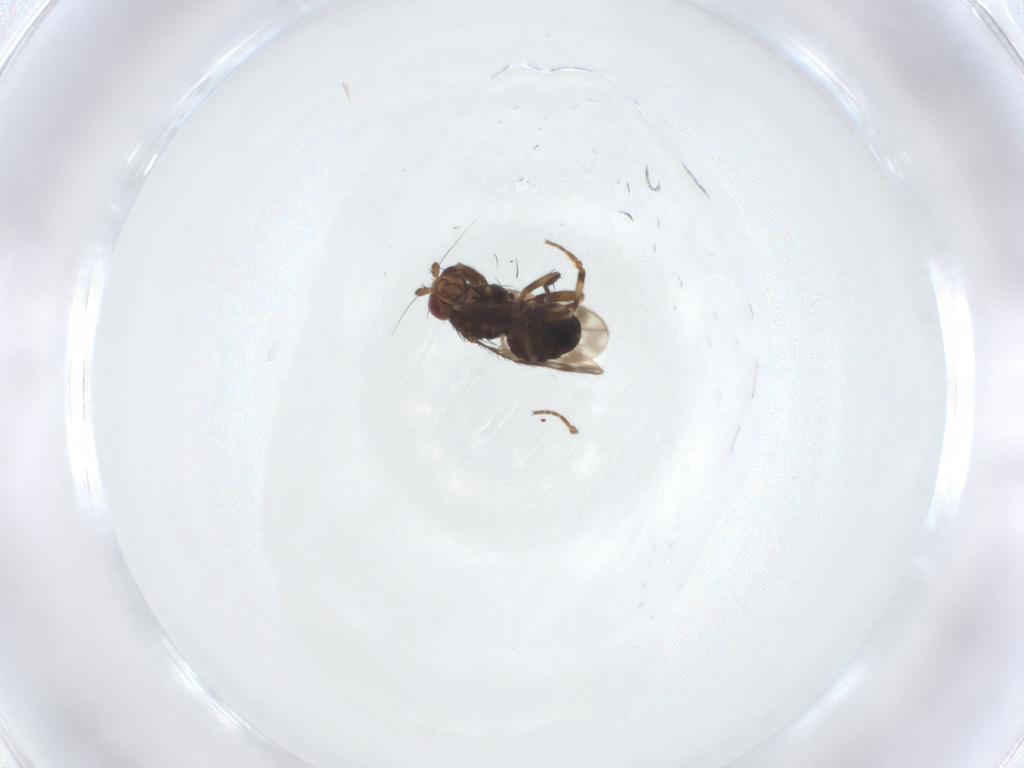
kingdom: Animalia
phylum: Arthropoda
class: Insecta
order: Diptera
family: Sphaeroceridae
